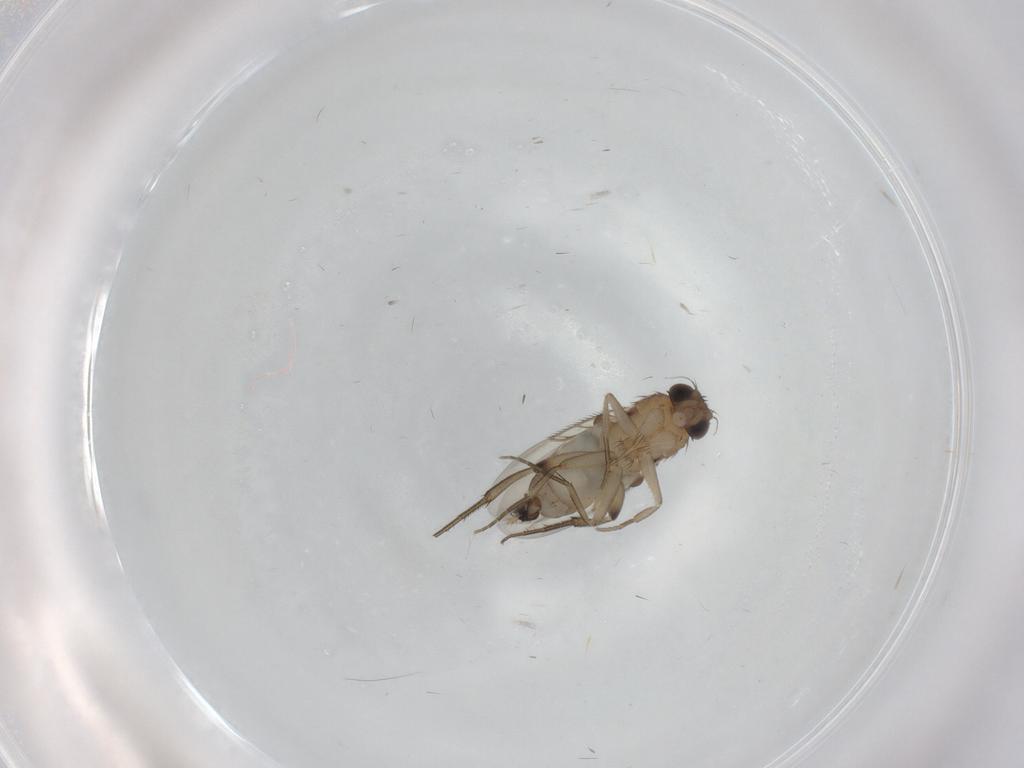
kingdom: Animalia
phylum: Arthropoda
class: Insecta
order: Diptera
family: Phoridae
